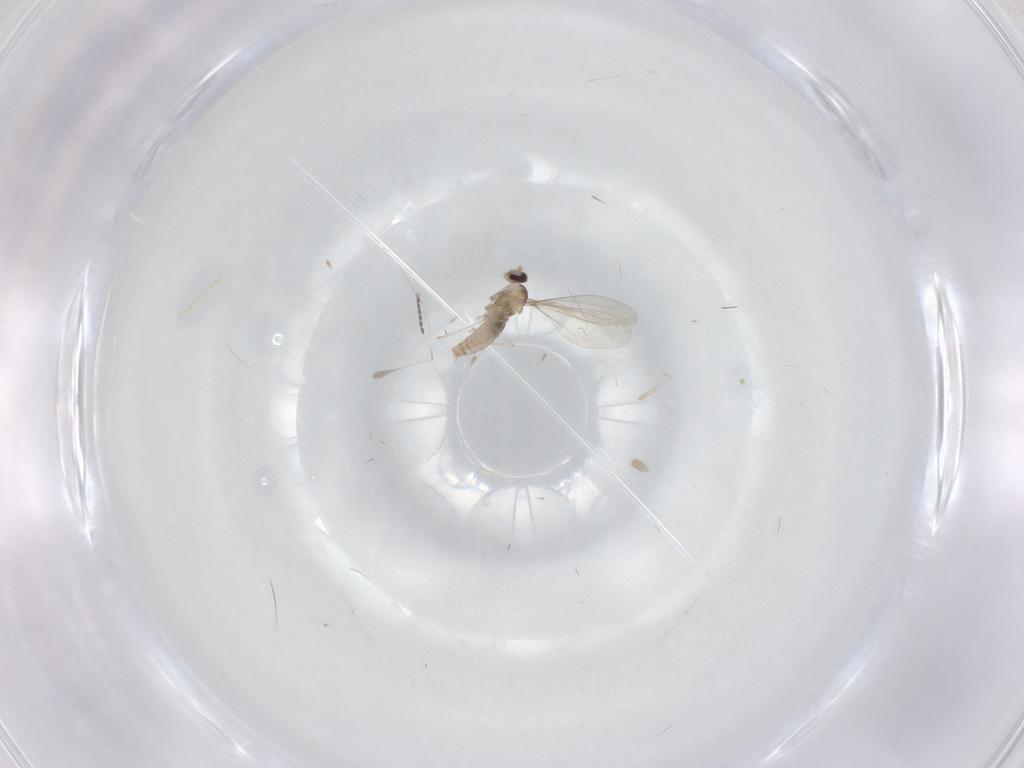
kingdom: Animalia
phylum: Arthropoda
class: Insecta
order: Diptera
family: Cecidomyiidae
